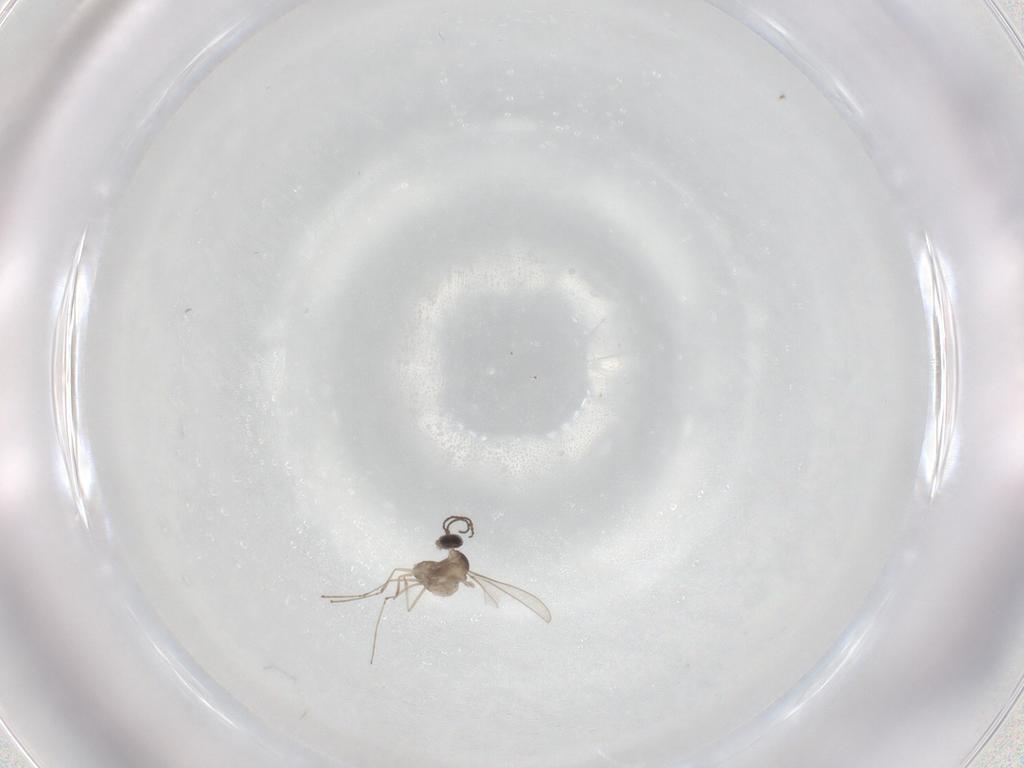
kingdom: Animalia
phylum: Arthropoda
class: Insecta
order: Diptera
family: Cecidomyiidae
